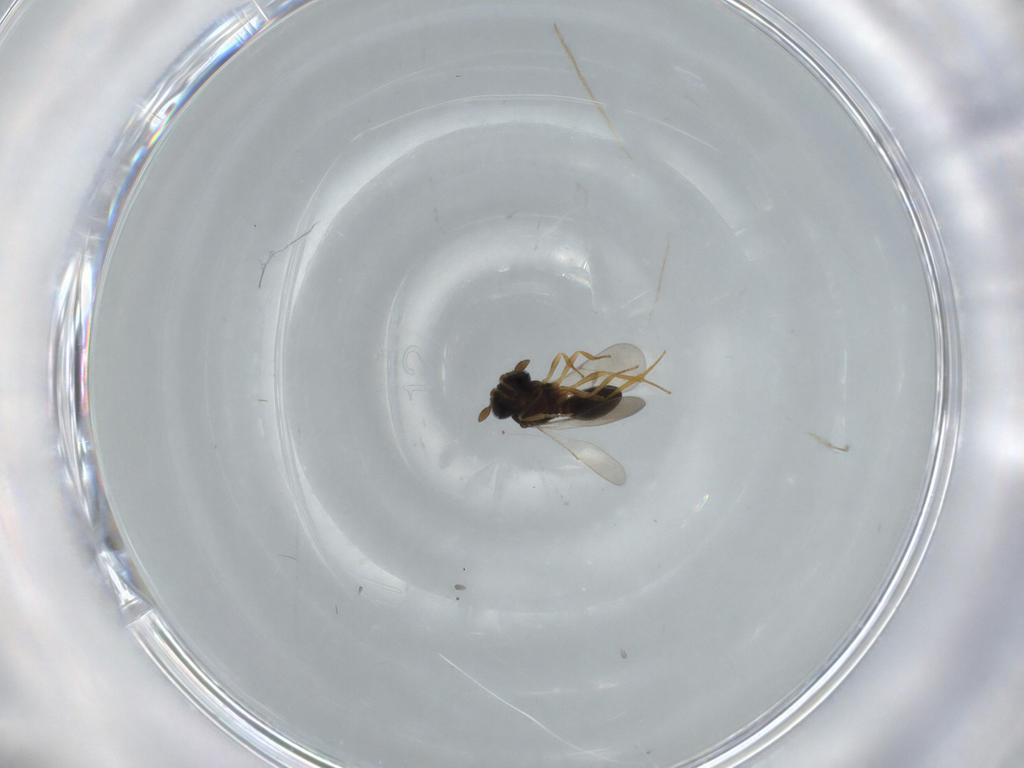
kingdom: Animalia
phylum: Arthropoda
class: Insecta
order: Hymenoptera
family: Scelionidae
